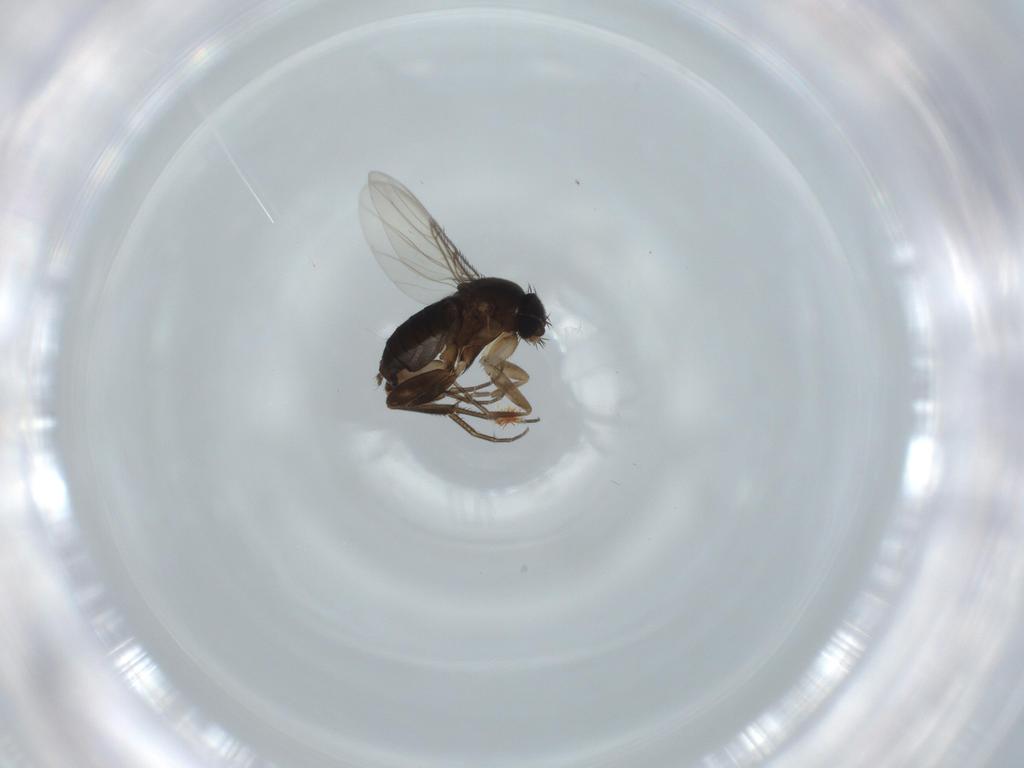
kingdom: Animalia
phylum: Arthropoda
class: Insecta
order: Diptera
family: Phoridae
